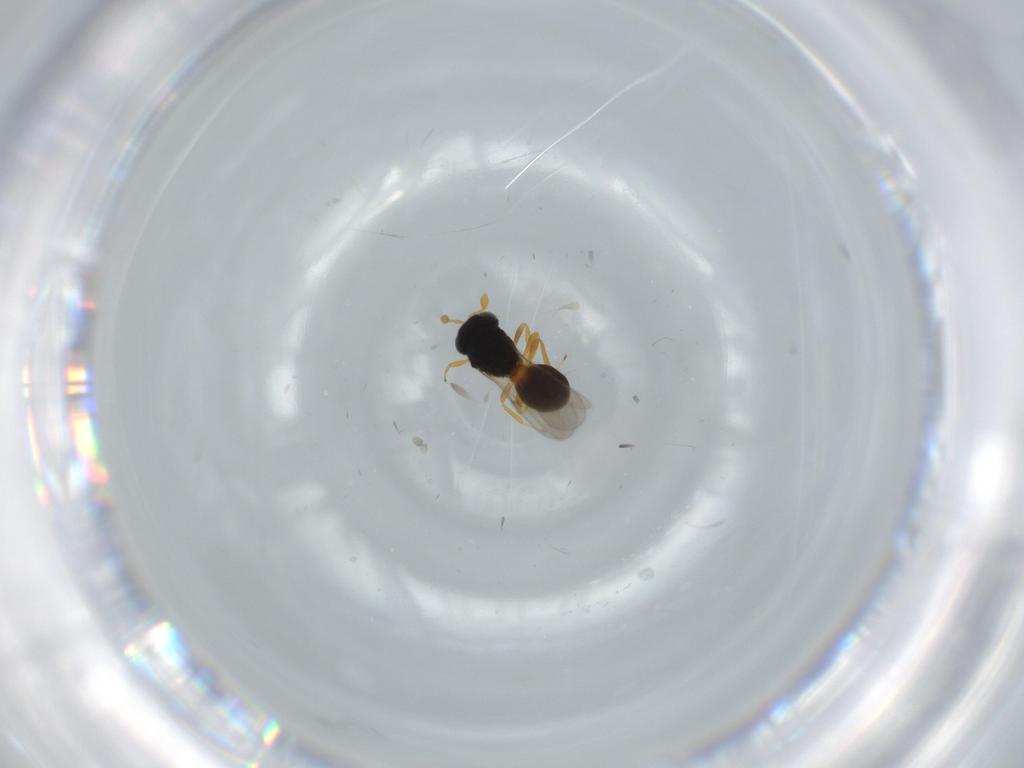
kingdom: Animalia
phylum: Arthropoda
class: Insecta
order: Hymenoptera
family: Scelionidae
